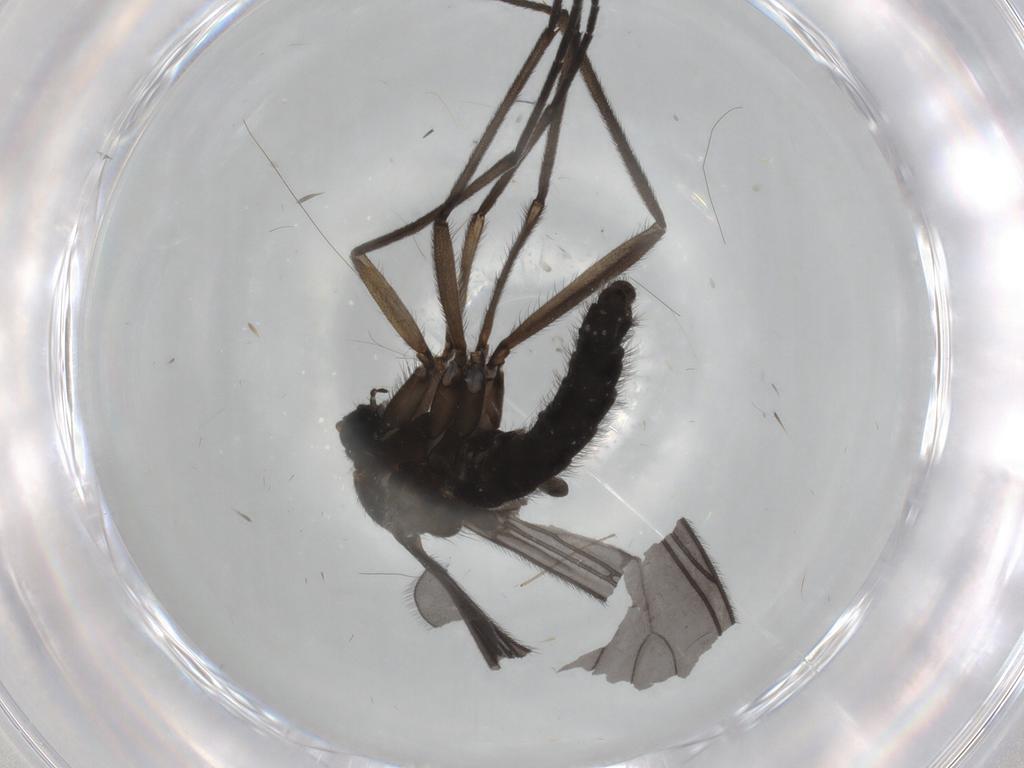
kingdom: Animalia
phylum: Arthropoda
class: Insecta
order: Diptera
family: Sciaridae
